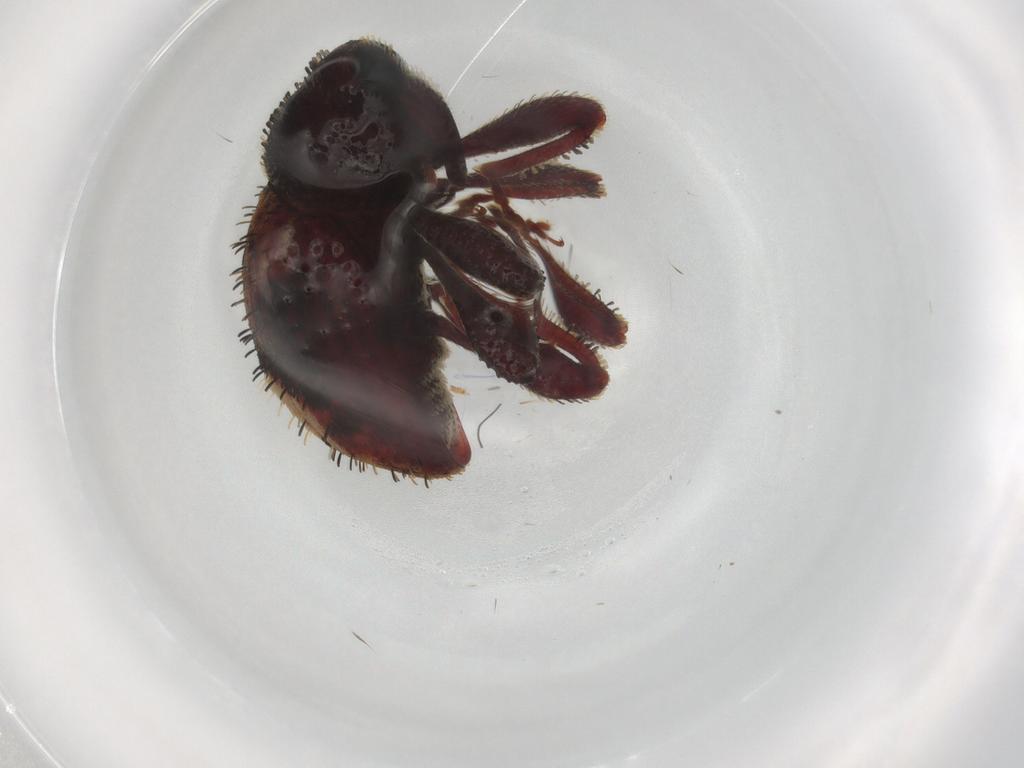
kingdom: Animalia
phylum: Arthropoda
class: Insecta
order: Coleoptera
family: Curculionidae
